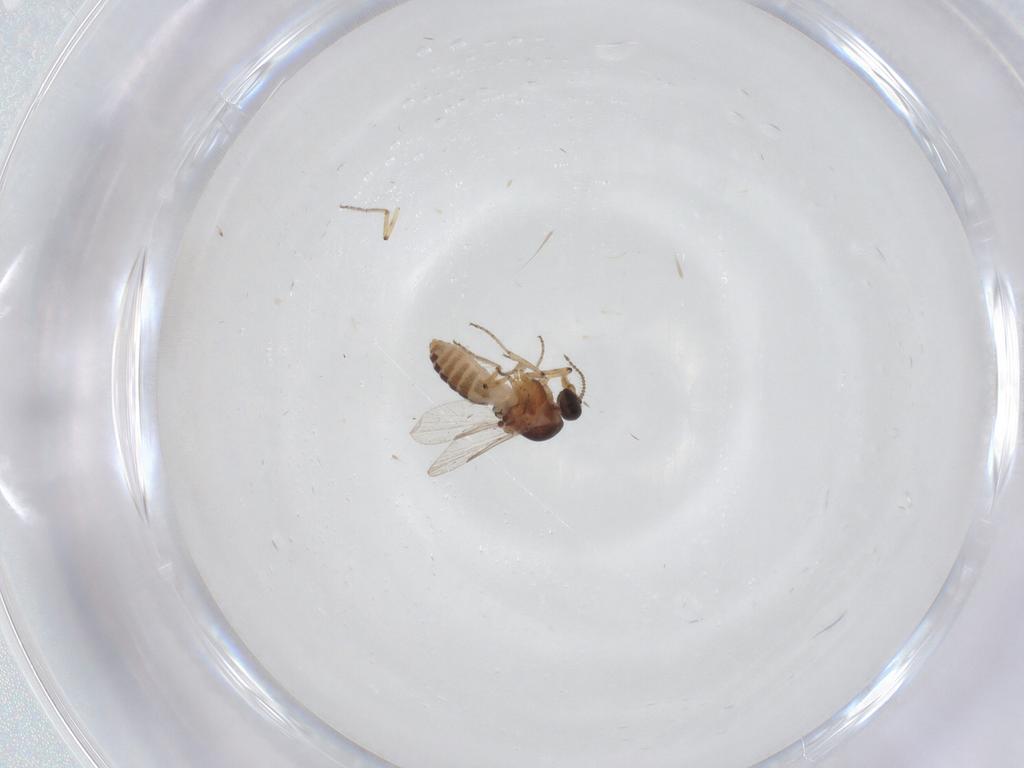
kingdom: Animalia
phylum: Arthropoda
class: Insecta
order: Diptera
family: Ceratopogonidae
